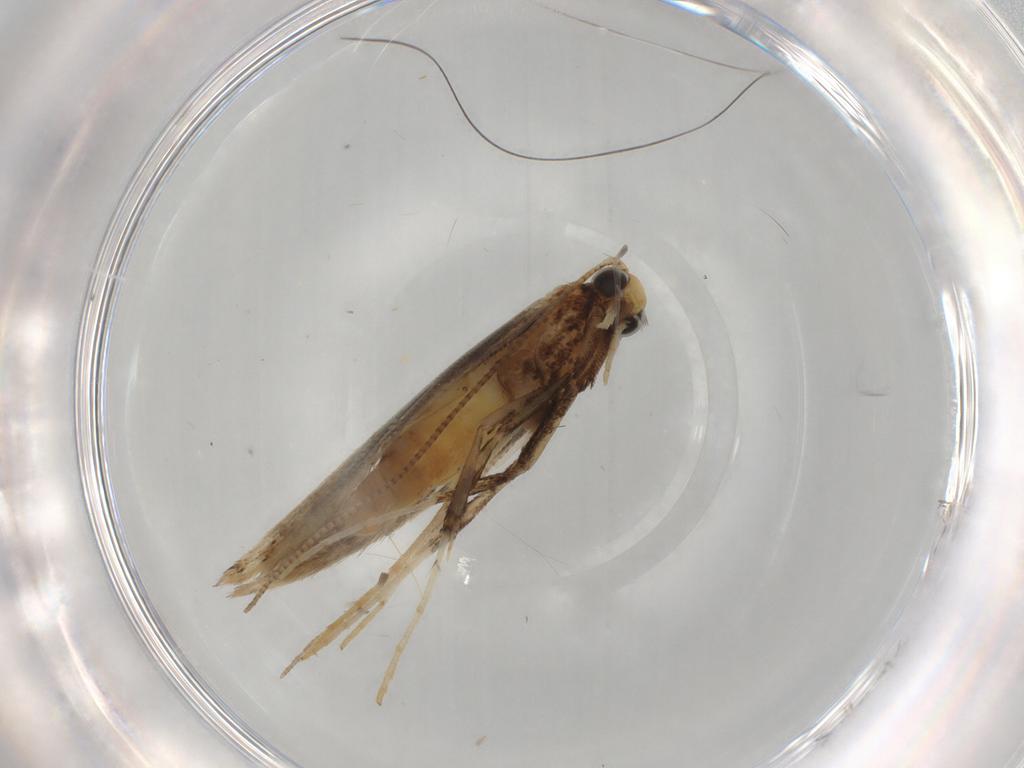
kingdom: Animalia
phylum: Arthropoda
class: Insecta
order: Lepidoptera
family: Gracillariidae
